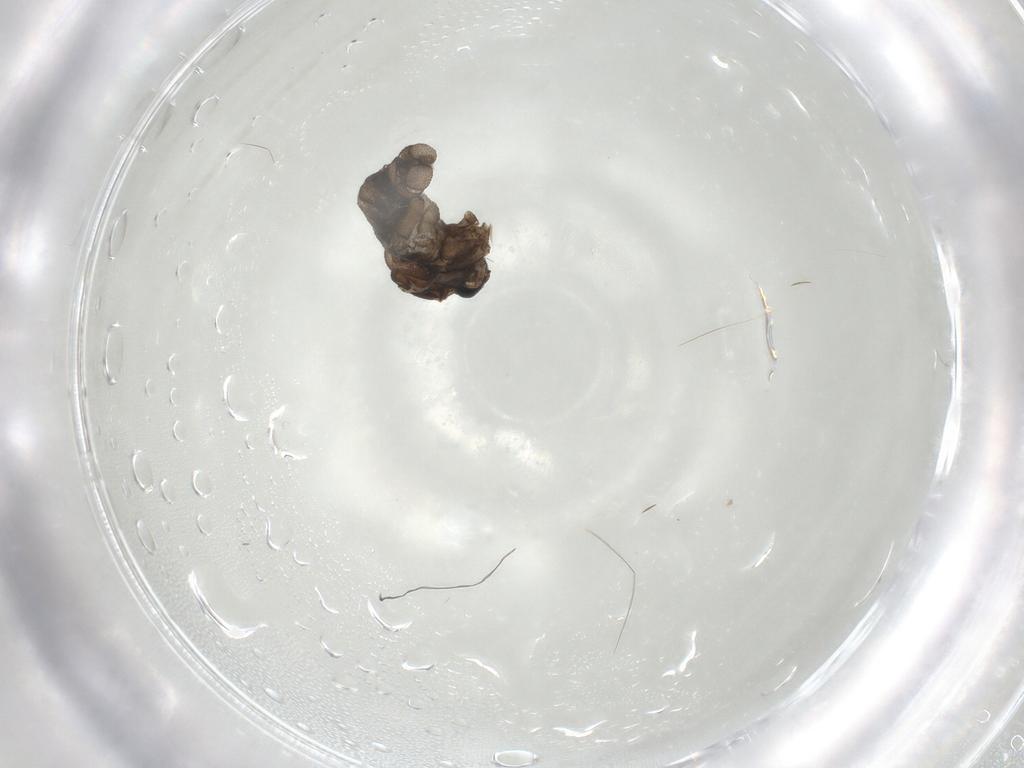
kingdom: Animalia
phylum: Arthropoda
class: Insecta
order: Diptera
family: Sciaridae
